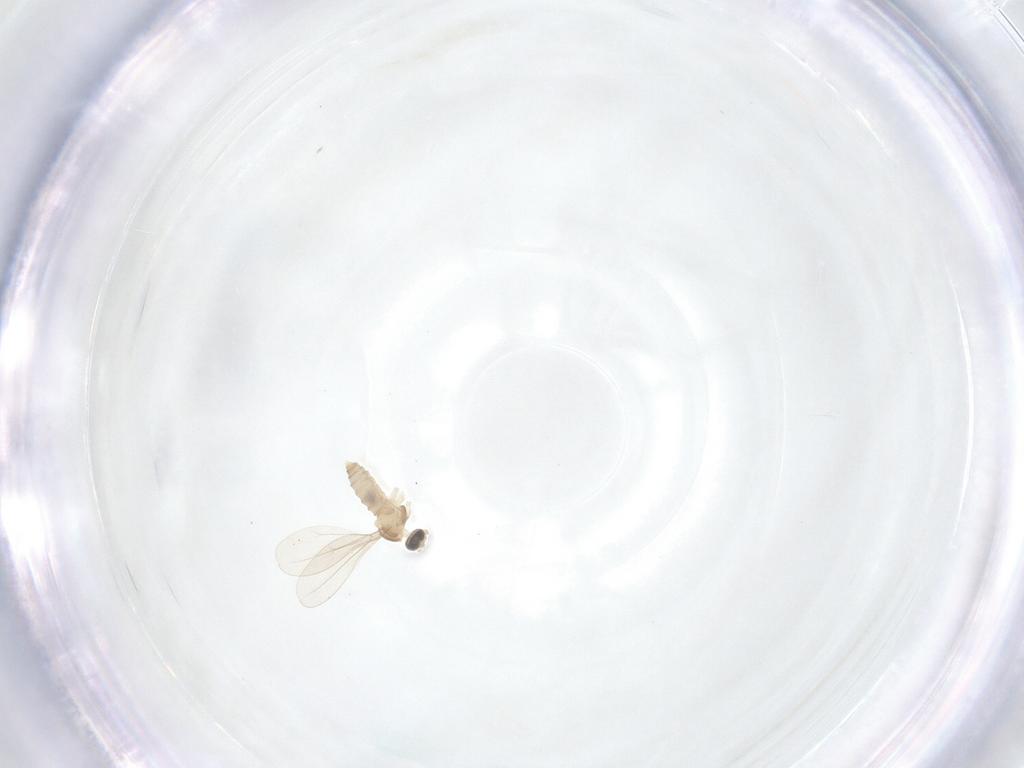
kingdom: Animalia
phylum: Arthropoda
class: Insecta
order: Diptera
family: Cecidomyiidae
